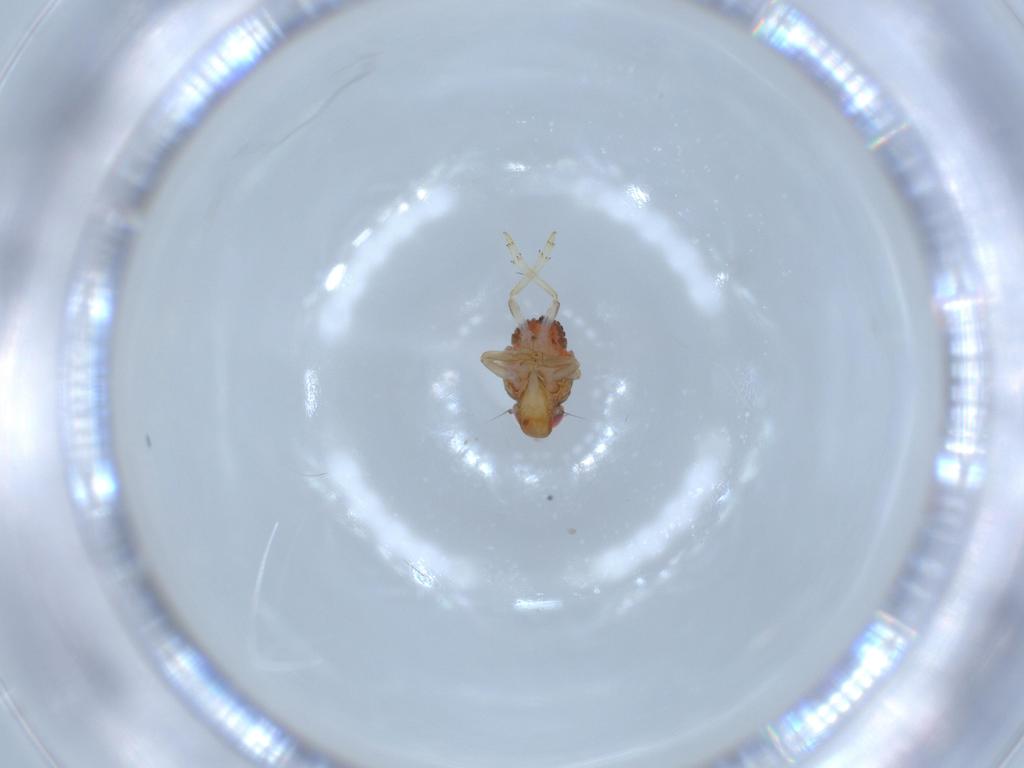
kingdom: Animalia
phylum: Arthropoda
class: Insecta
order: Hemiptera
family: Issidae
